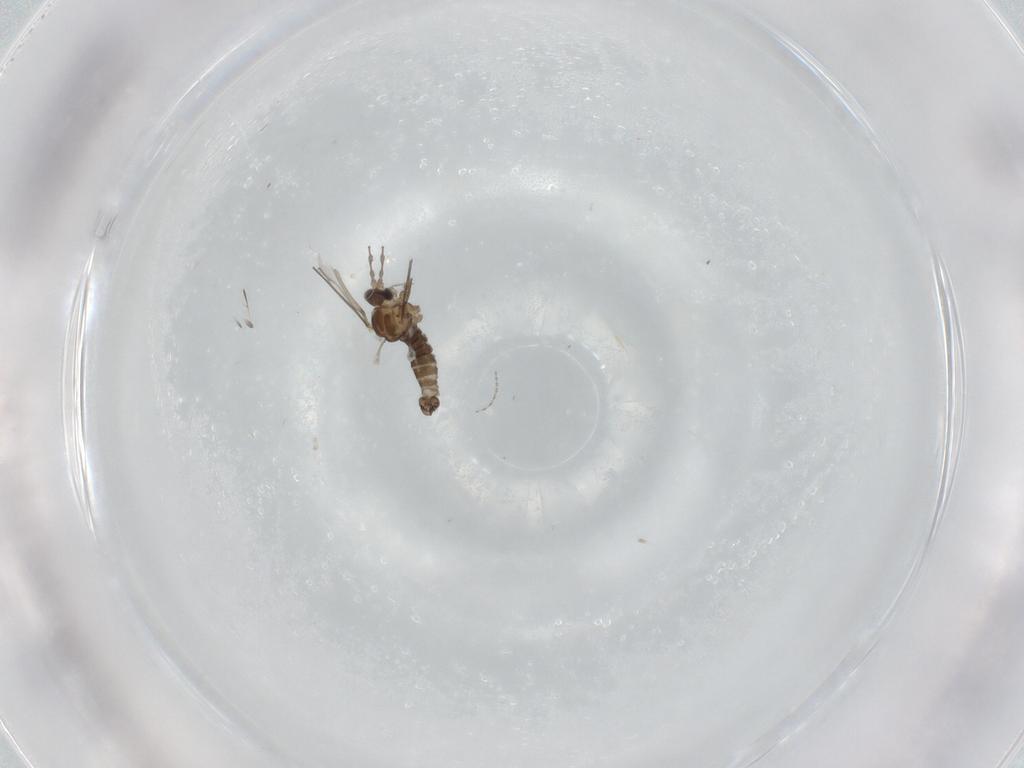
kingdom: Animalia
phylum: Arthropoda
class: Insecta
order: Diptera
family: Cecidomyiidae
